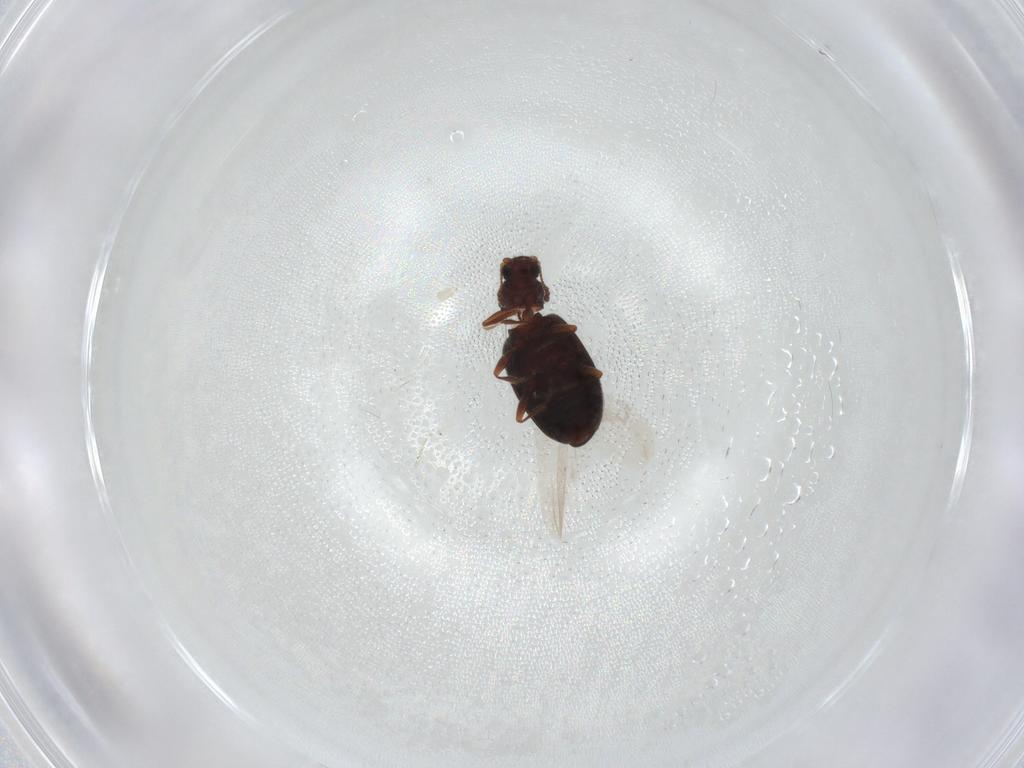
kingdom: Animalia
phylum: Arthropoda
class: Insecta
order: Coleoptera
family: Latridiidae
